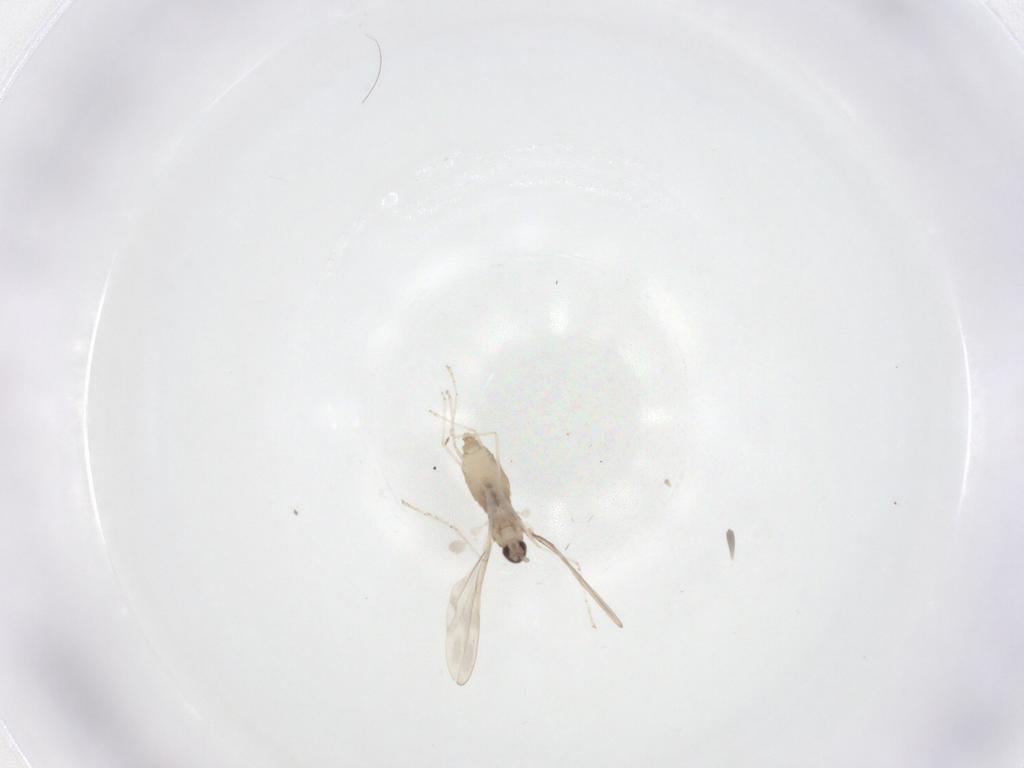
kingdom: Animalia
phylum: Arthropoda
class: Insecta
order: Diptera
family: Cecidomyiidae
